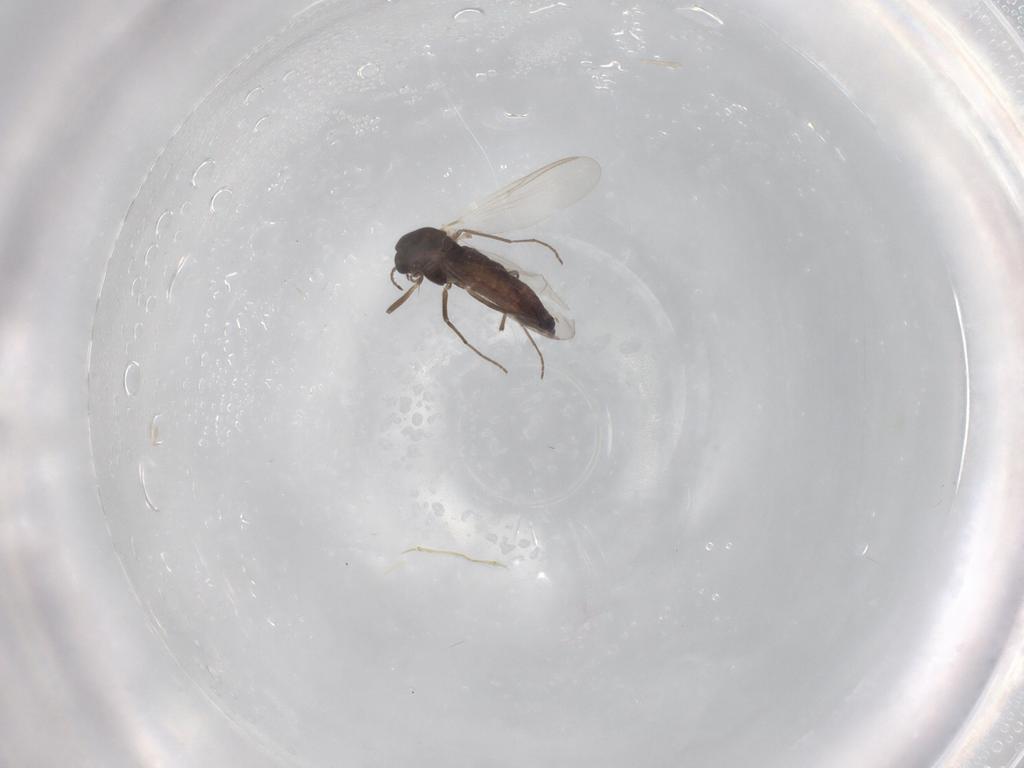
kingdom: Animalia
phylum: Arthropoda
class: Insecta
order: Diptera
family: Chironomidae
